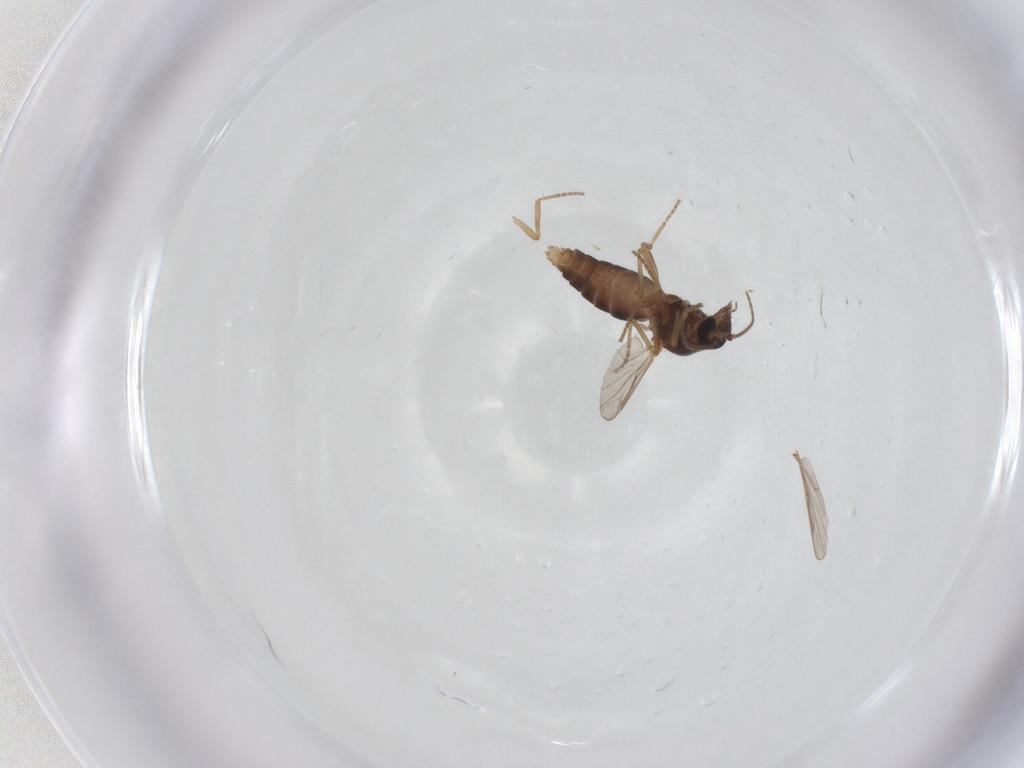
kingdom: Animalia
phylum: Arthropoda
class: Insecta
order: Diptera
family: Ceratopogonidae
